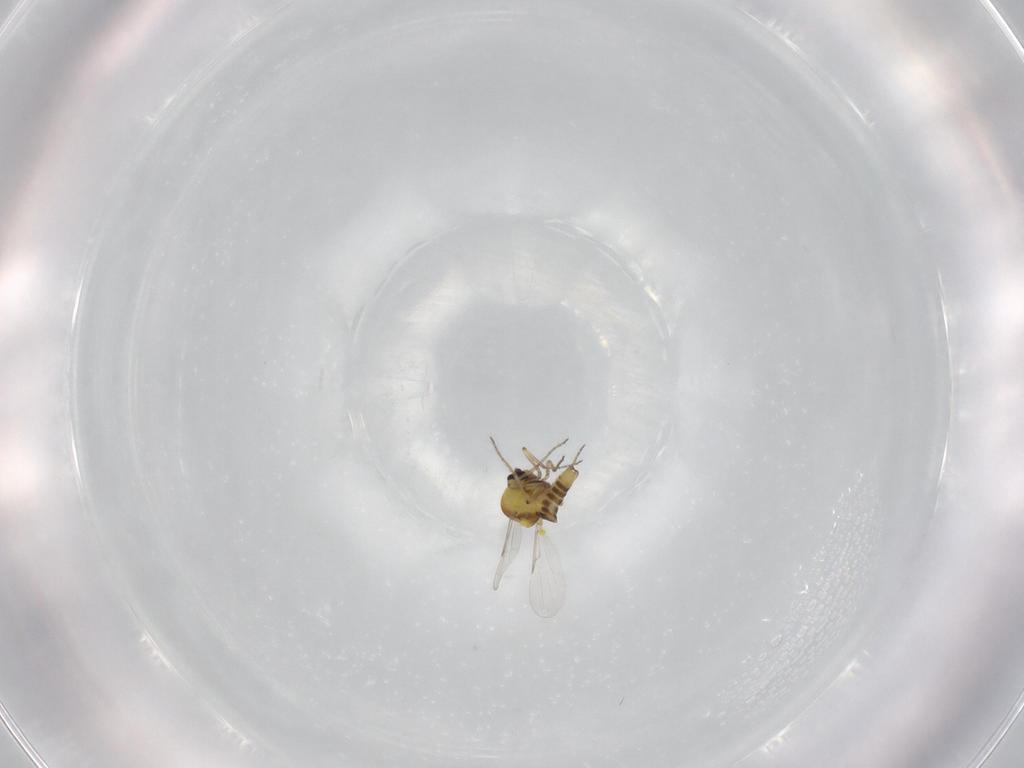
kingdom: Animalia
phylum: Arthropoda
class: Insecta
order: Diptera
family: Ceratopogonidae
